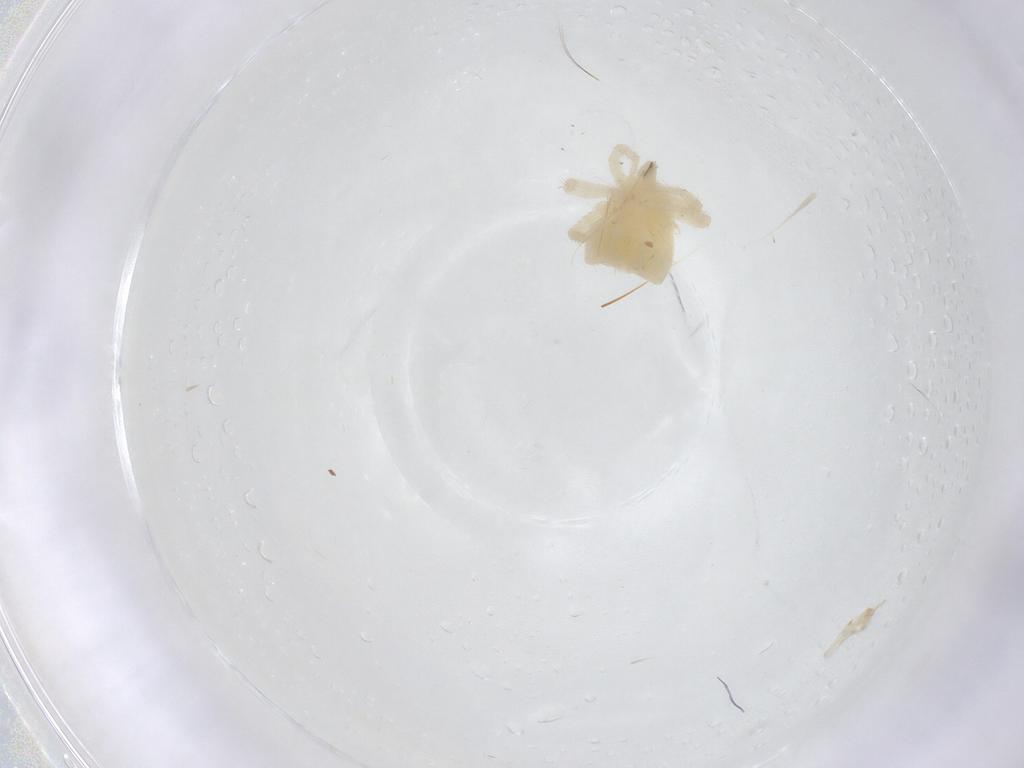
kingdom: Animalia
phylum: Arthropoda
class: Arachnida
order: Trombidiformes
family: Anystidae
